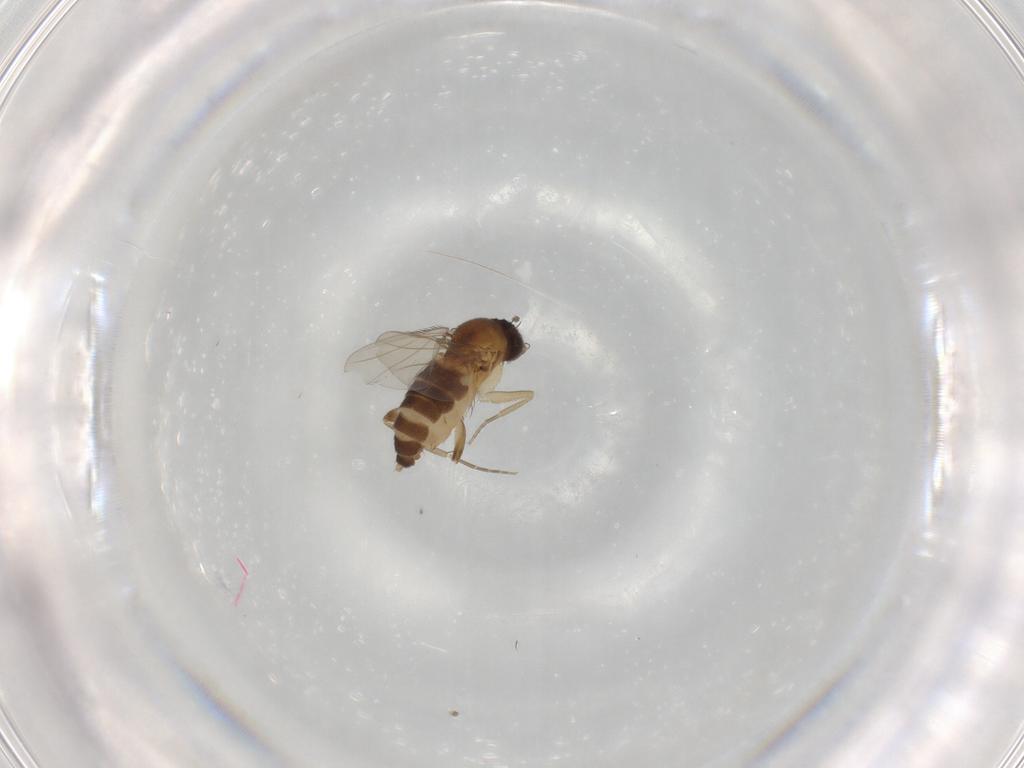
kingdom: Animalia
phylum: Arthropoda
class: Insecta
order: Diptera
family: Phoridae
